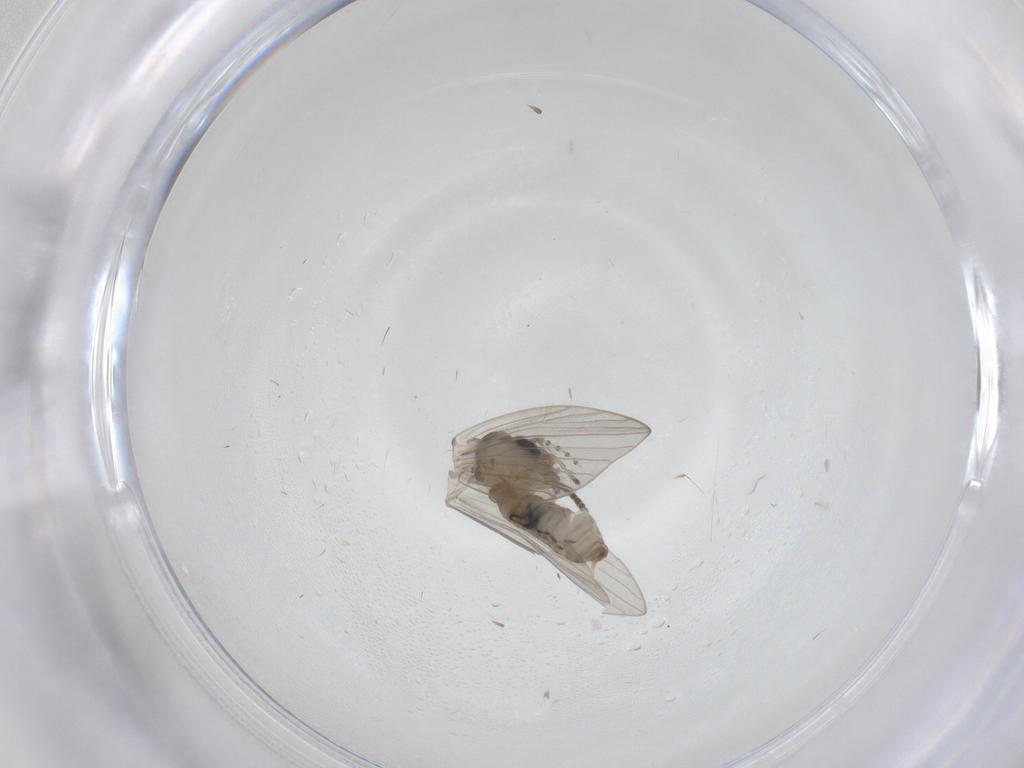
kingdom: Animalia
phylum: Arthropoda
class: Insecta
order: Diptera
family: Psychodidae
